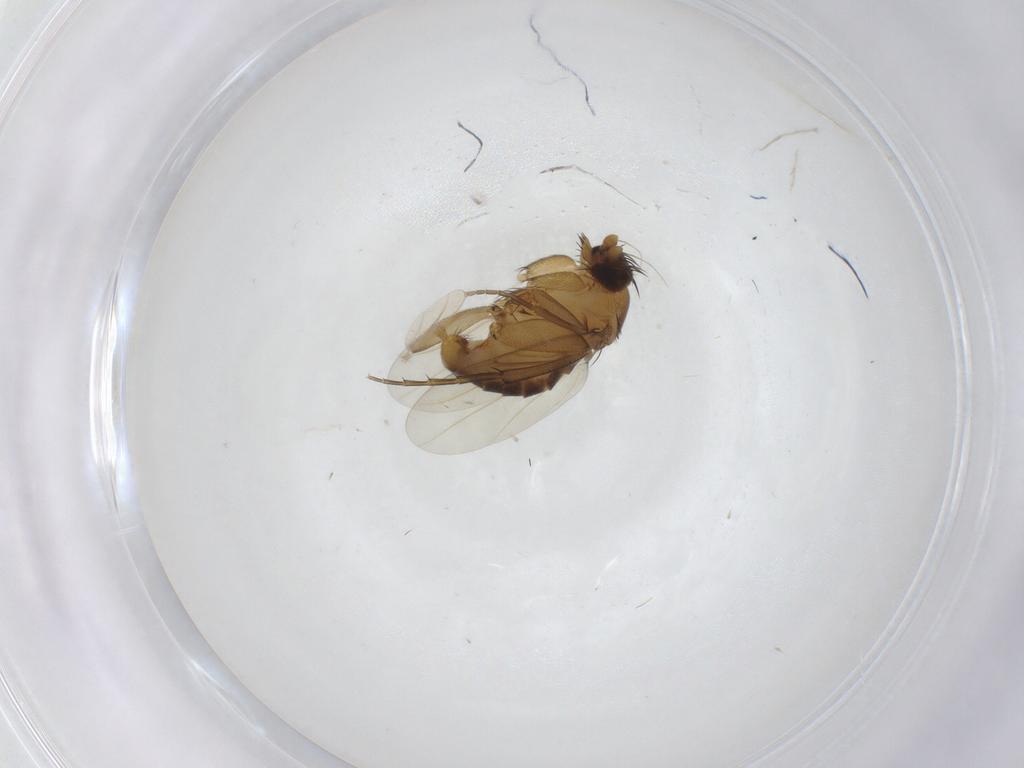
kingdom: Animalia
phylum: Arthropoda
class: Insecta
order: Diptera
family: Phoridae
